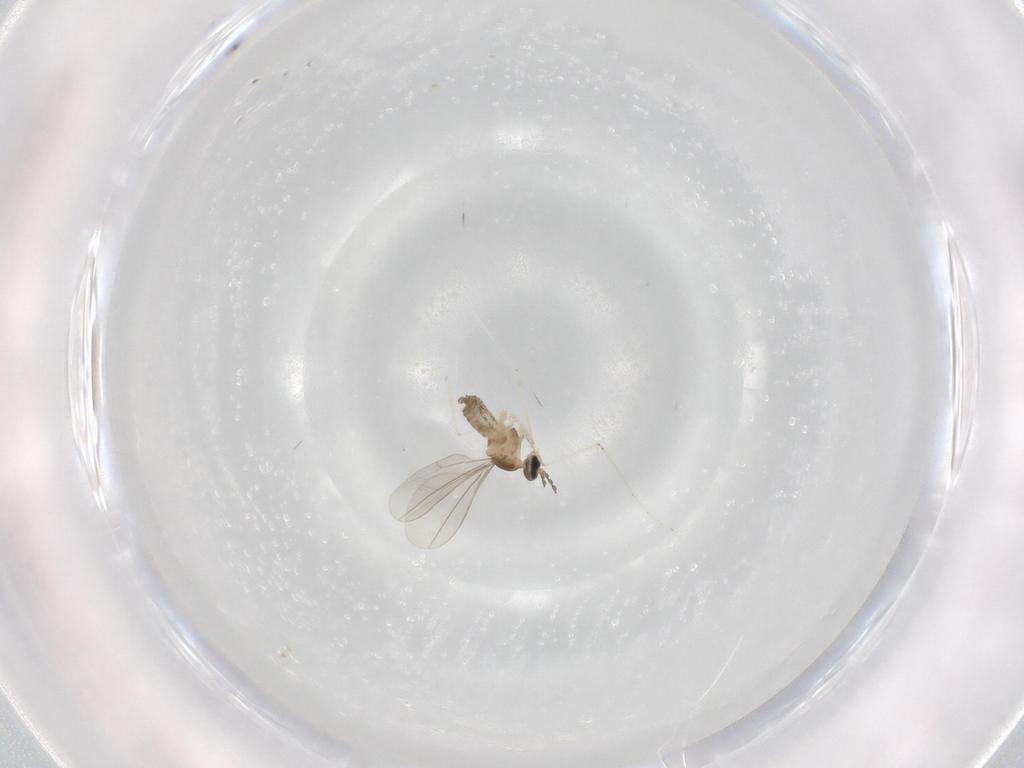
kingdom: Animalia
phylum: Arthropoda
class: Insecta
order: Diptera
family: Cecidomyiidae
